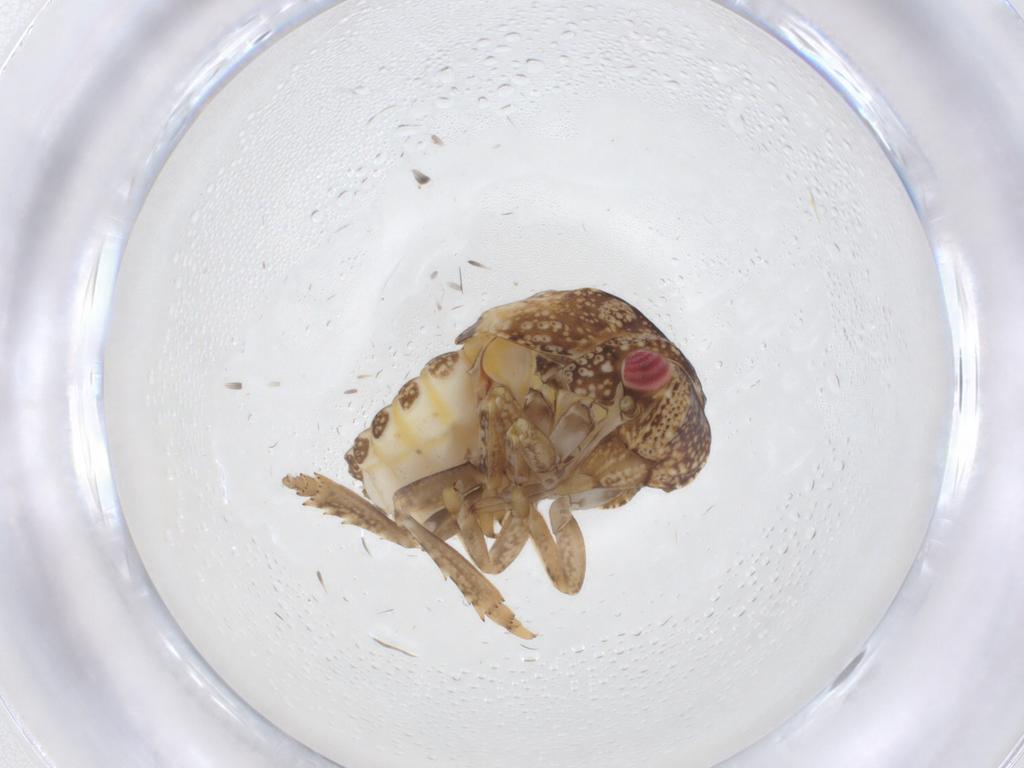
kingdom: Animalia
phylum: Arthropoda
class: Insecta
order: Hemiptera
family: Acanaloniidae
